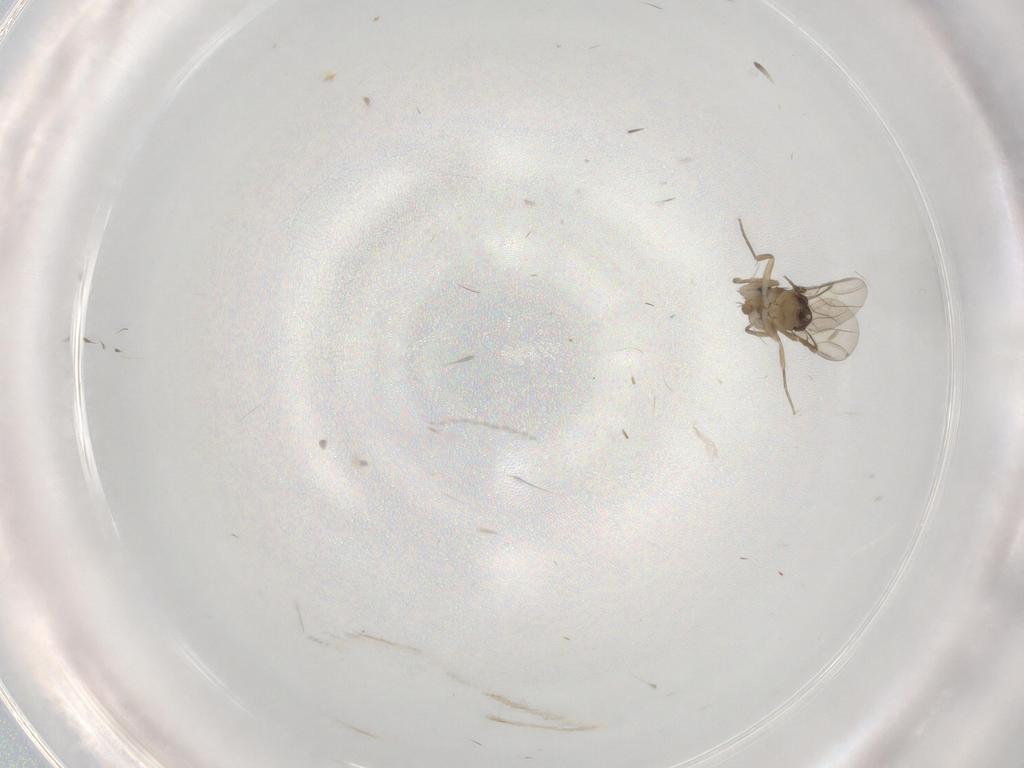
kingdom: Animalia
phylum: Arthropoda
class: Insecta
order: Diptera
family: Phoridae
